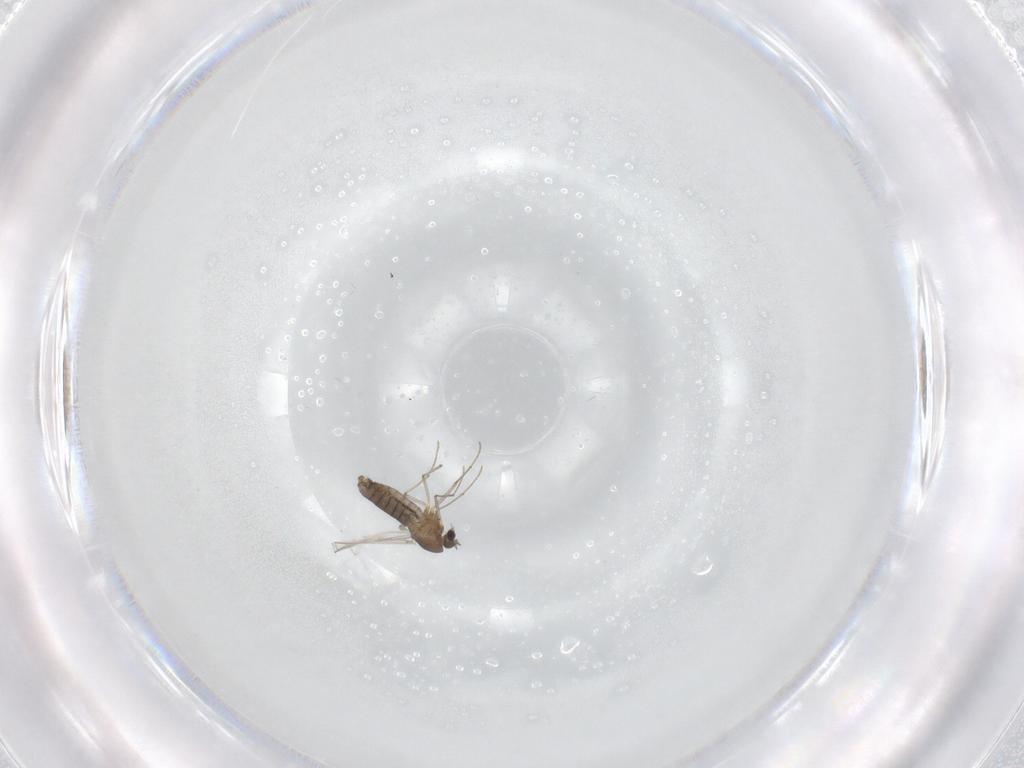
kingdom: Animalia
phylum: Arthropoda
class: Insecta
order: Diptera
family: Chironomidae
